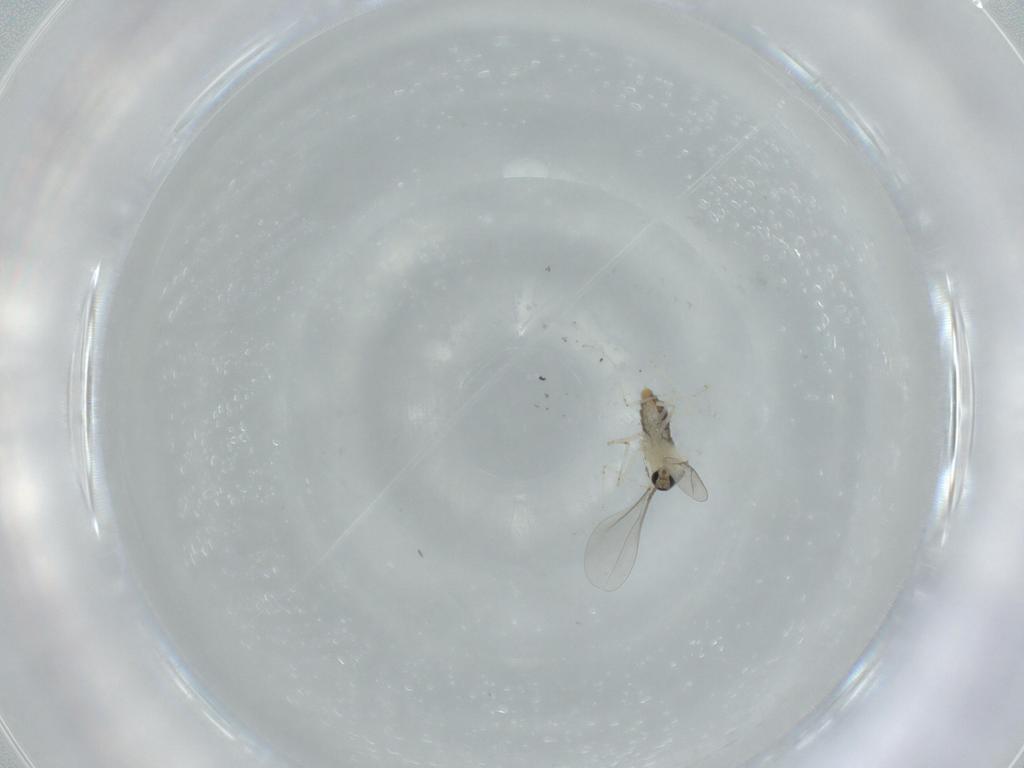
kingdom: Animalia
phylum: Arthropoda
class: Insecta
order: Diptera
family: Cecidomyiidae
